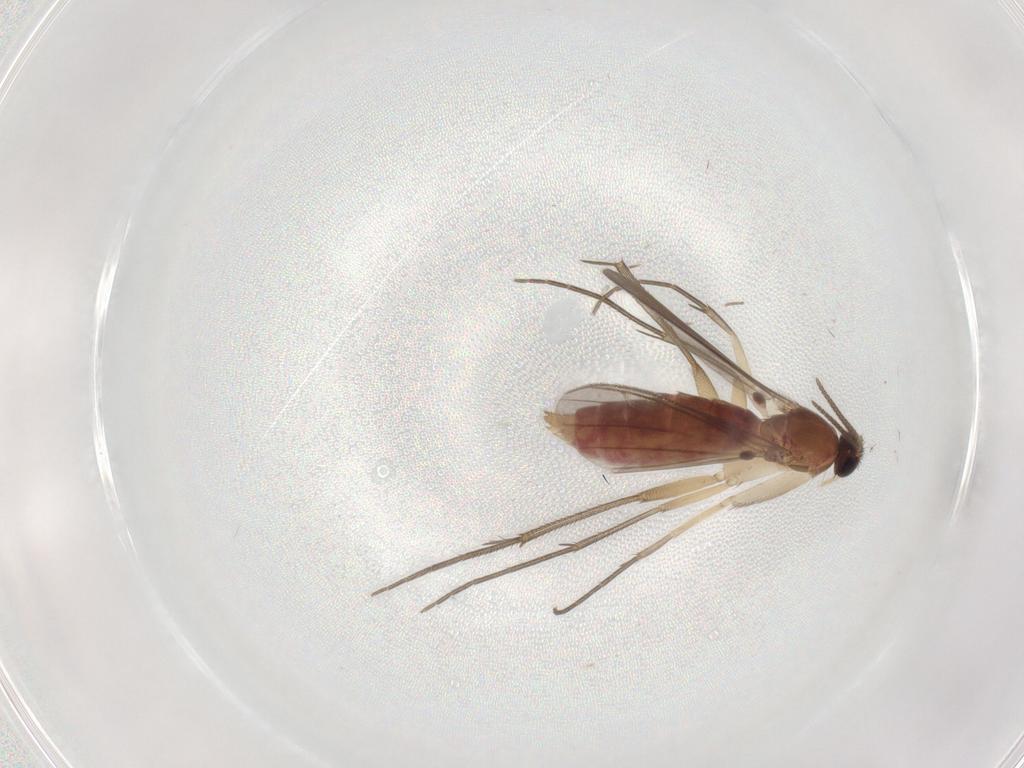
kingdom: Animalia
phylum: Arthropoda
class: Insecta
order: Diptera
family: Mycetophilidae
